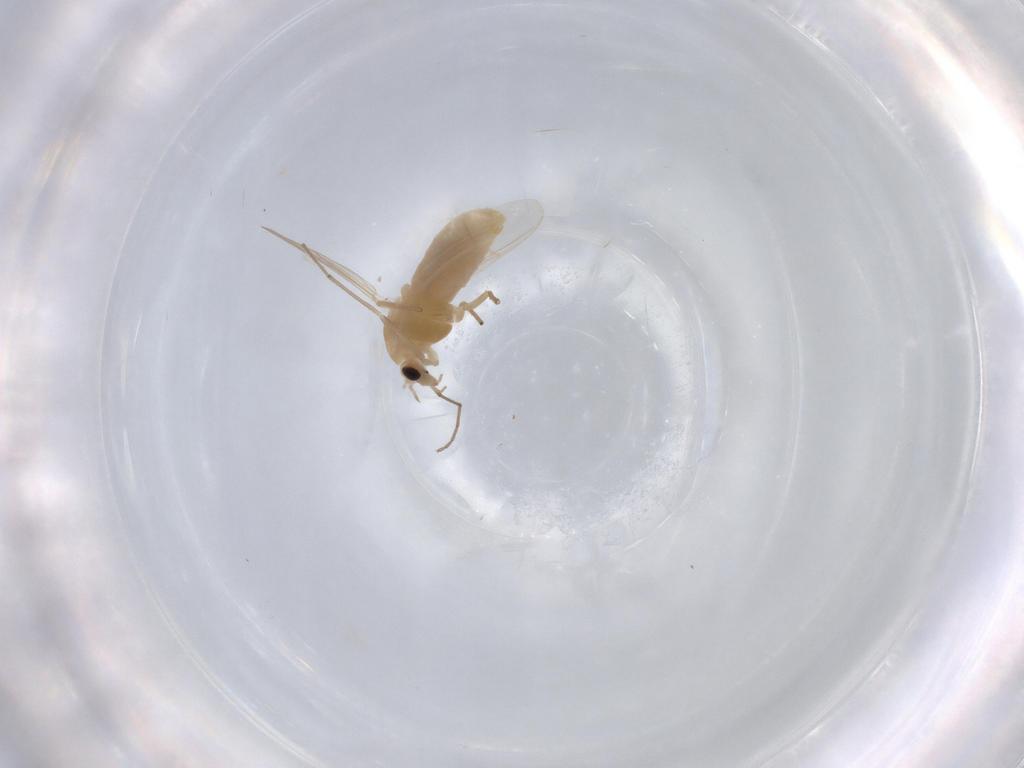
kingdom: Animalia
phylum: Arthropoda
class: Insecta
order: Diptera
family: Chironomidae
